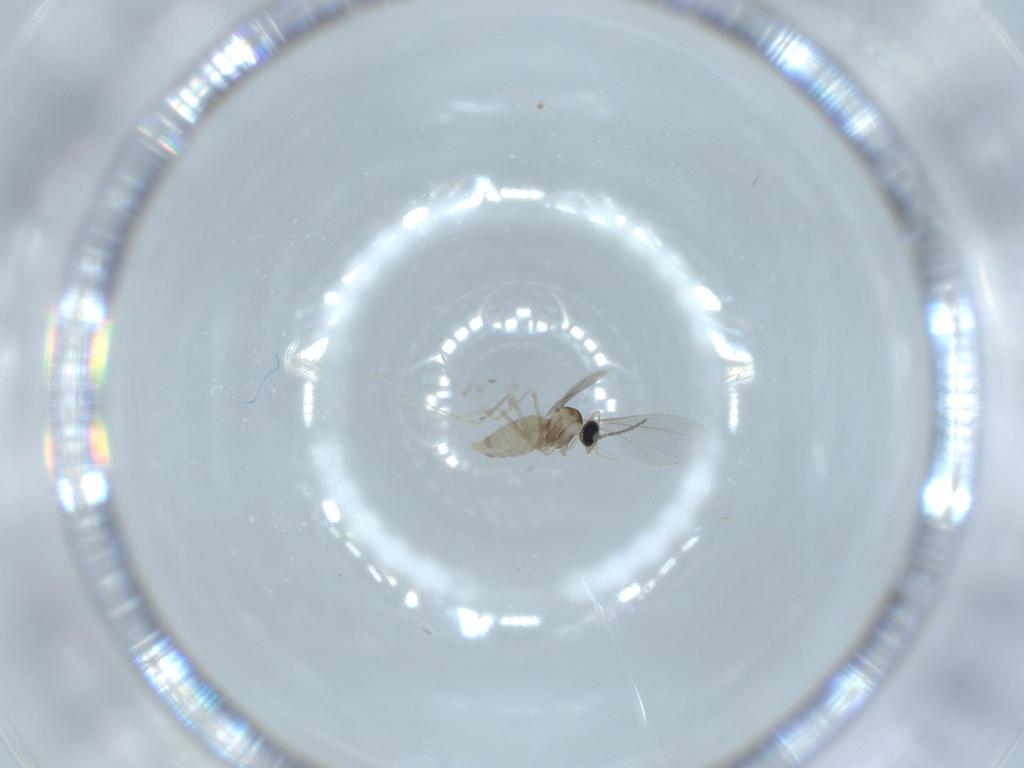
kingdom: Animalia
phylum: Arthropoda
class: Insecta
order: Diptera
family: Cecidomyiidae
